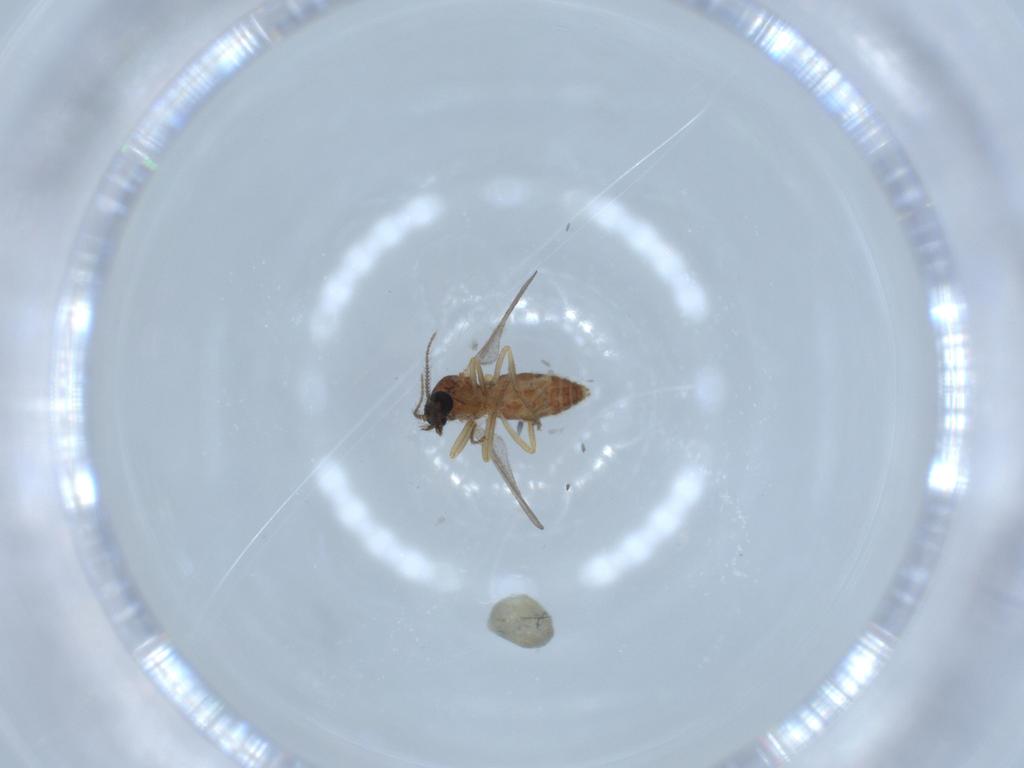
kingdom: Animalia
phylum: Arthropoda
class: Insecta
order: Diptera
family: Ceratopogonidae
